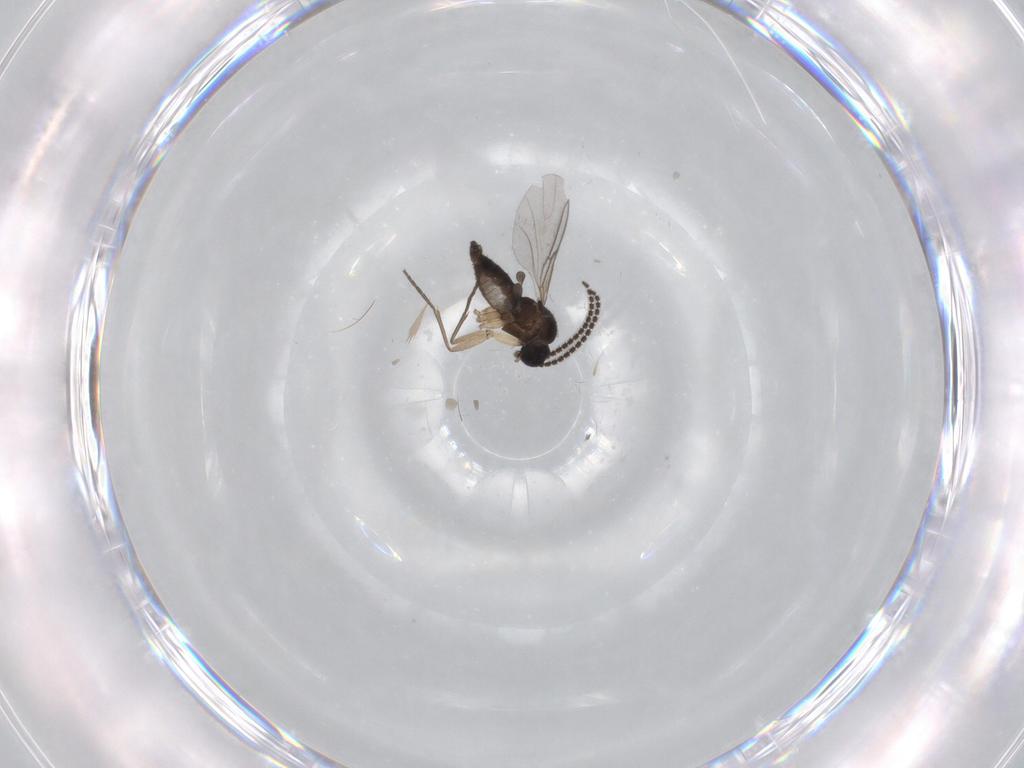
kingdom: Animalia
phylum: Arthropoda
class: Insecta
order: Diptera
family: Sciaridae
